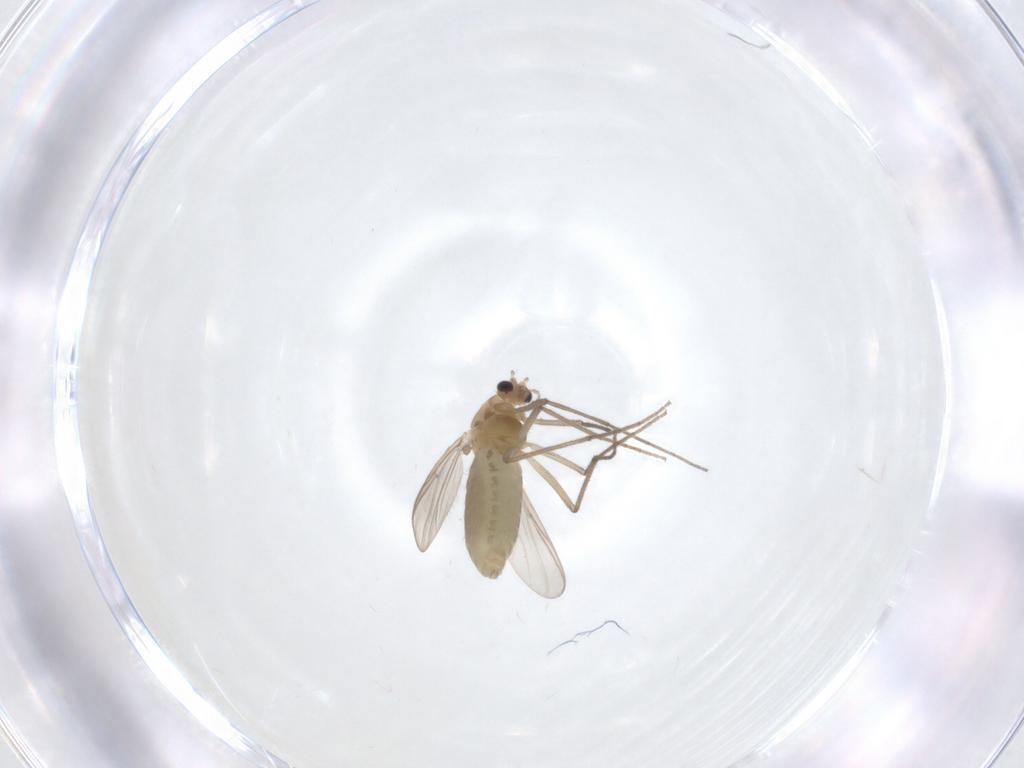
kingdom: Animalia
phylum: Arthropoda
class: Insecta
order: Diptera
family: Chironomidae
